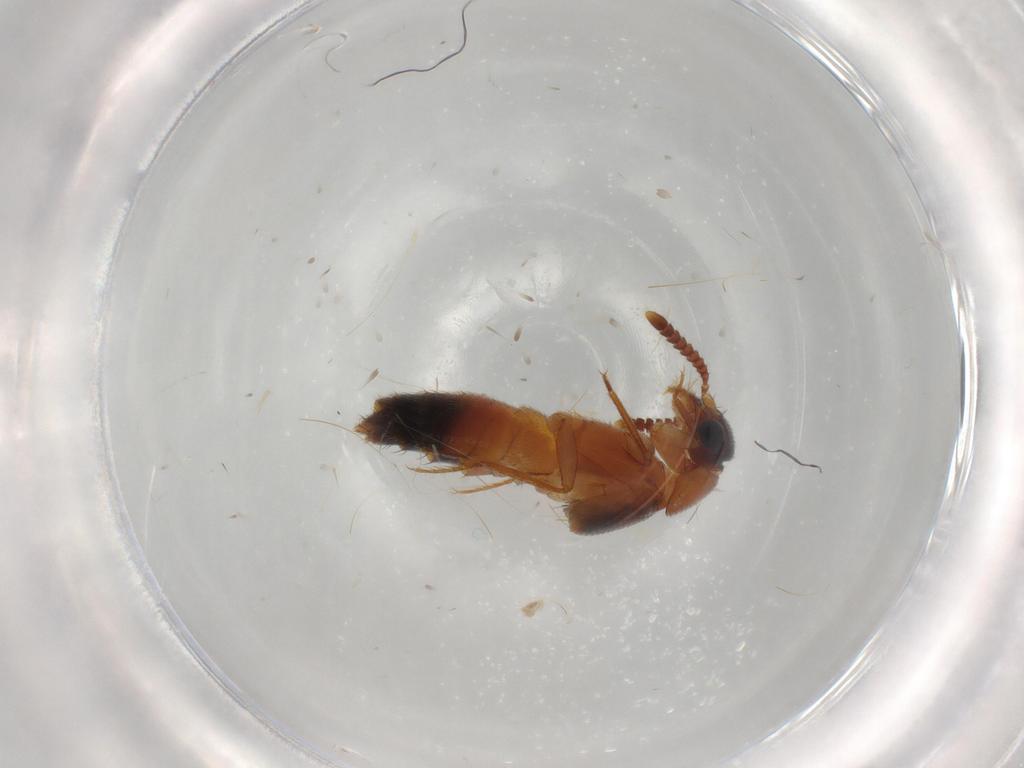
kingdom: Animalia
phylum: Arthropoda
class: Insecta
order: Coleoptera
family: Staphylinidae
